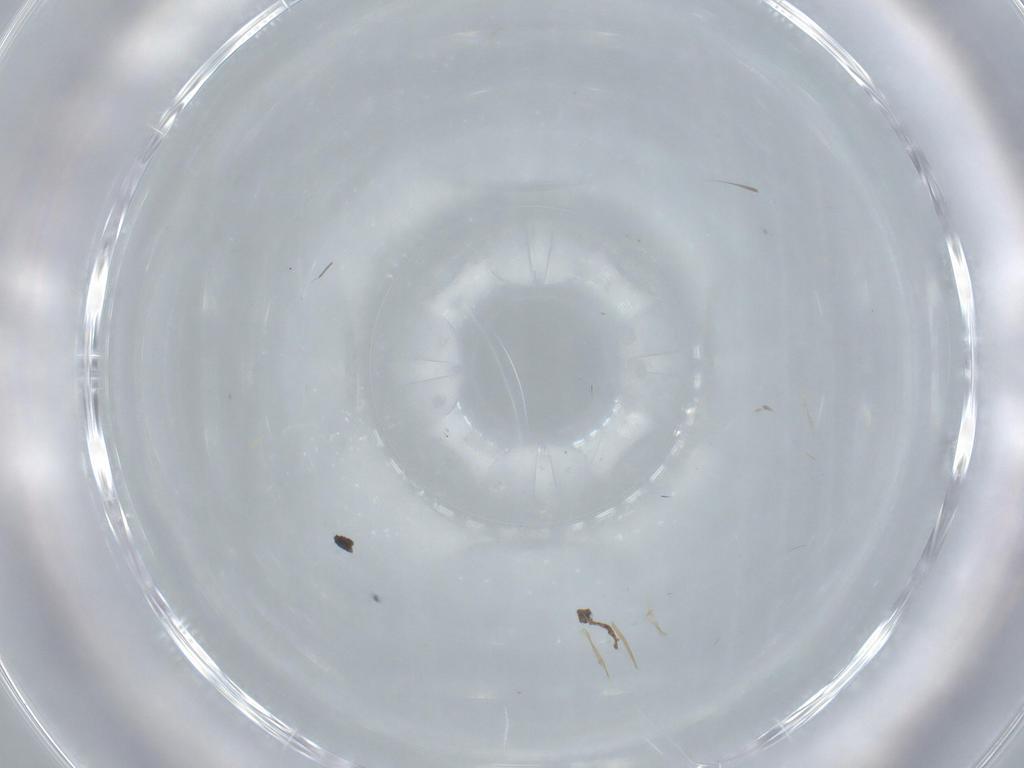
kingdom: Animalia
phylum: Arthropoda
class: Insecta
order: Diptera
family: Milichiidae
